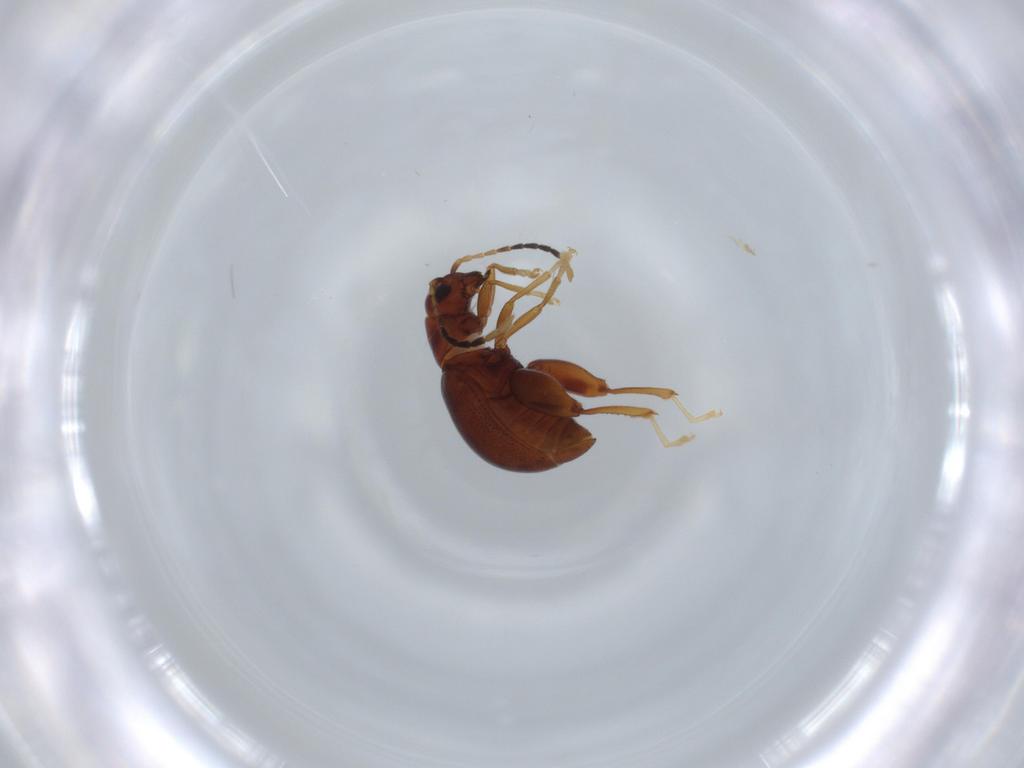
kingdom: Animalia
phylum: Arthropoda
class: Insecta
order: Coleoptera
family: Chrysomelidae
